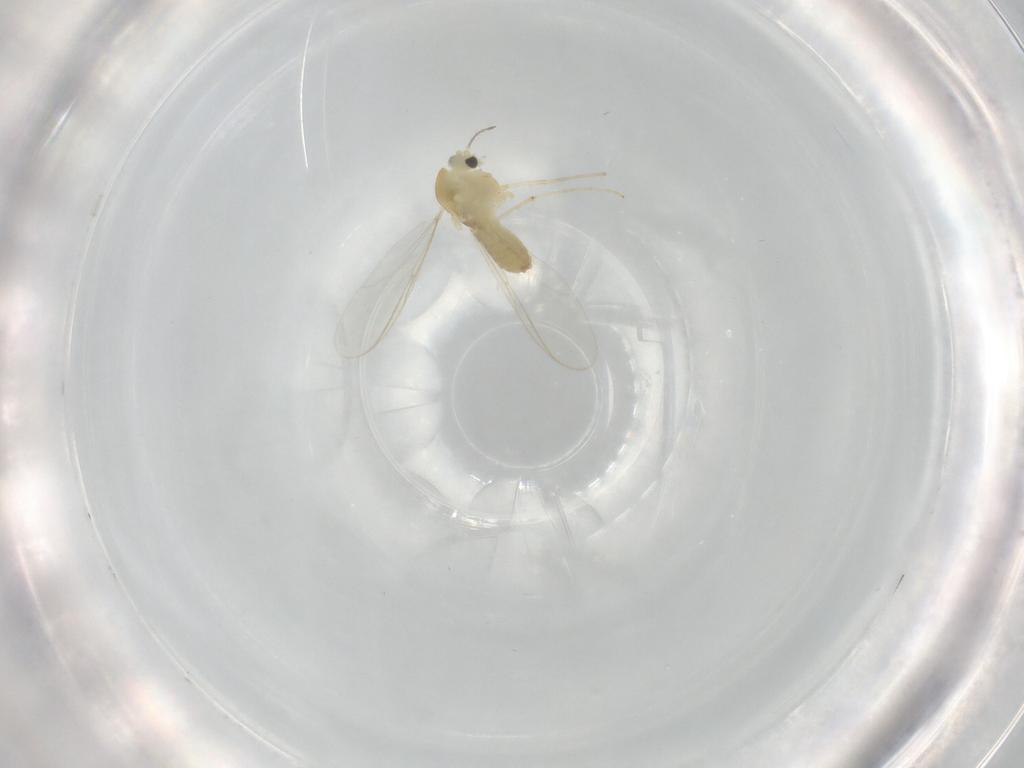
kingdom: Animalia
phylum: Arthropoda
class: Insecta
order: Diptera
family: Chironomidae
